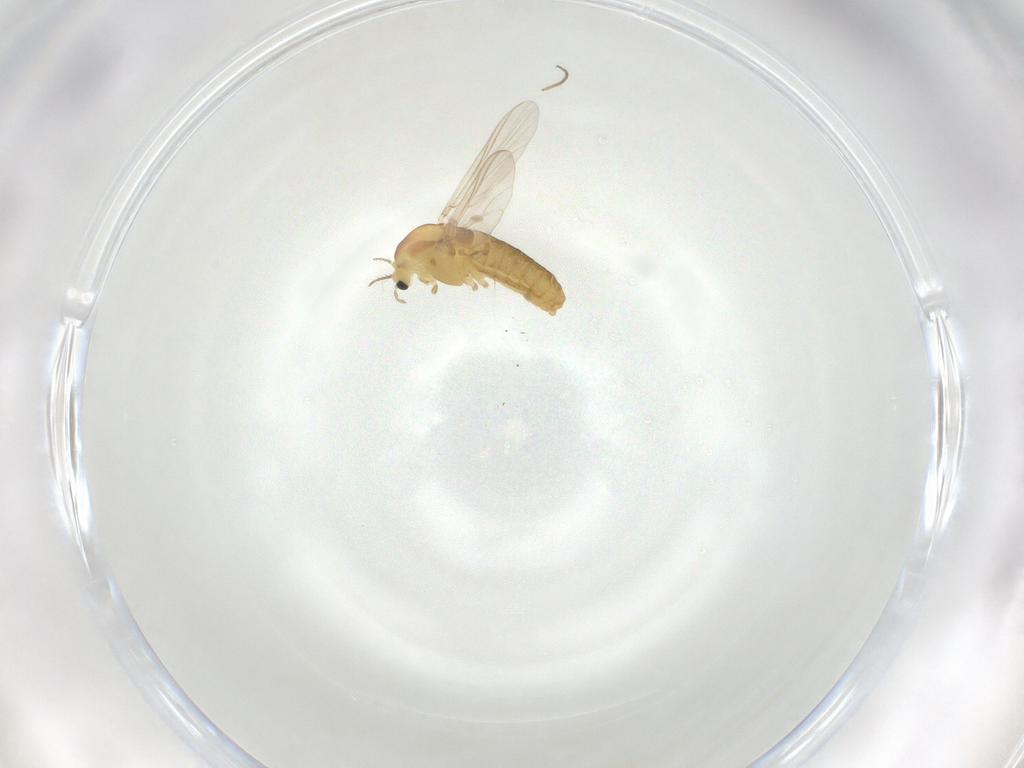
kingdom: Animalia
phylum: Arthropoda
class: Insecta
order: Diptera
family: Chironomidae
